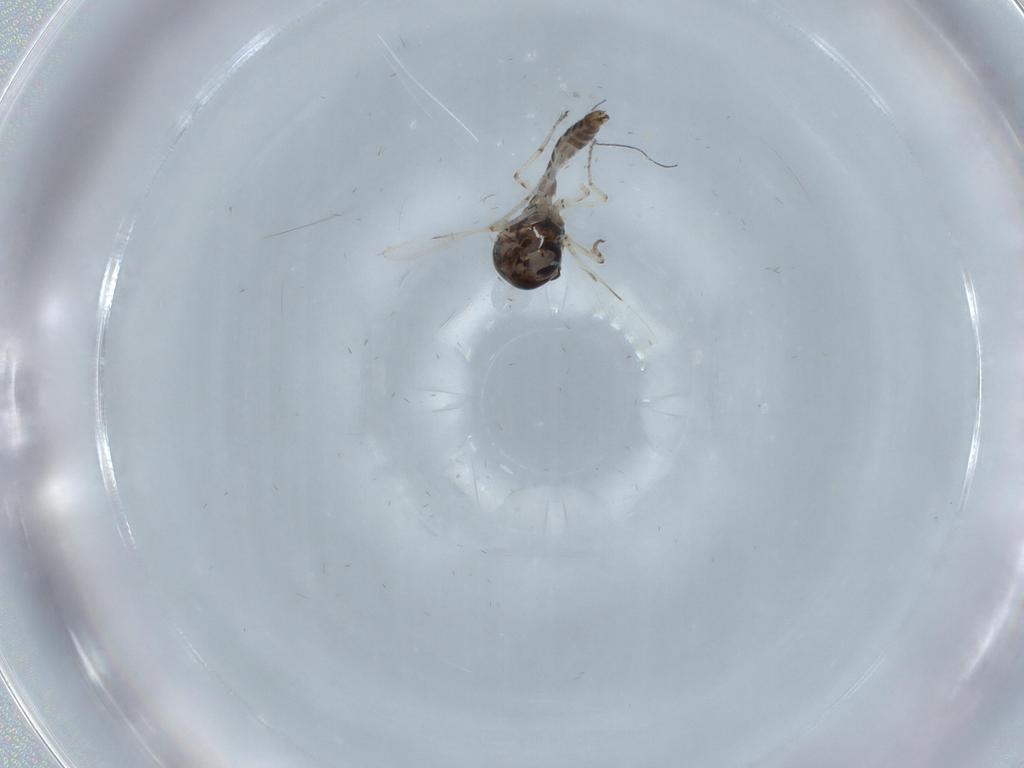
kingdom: Animalia
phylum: Arthropoda
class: Insecta
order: Diptera
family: Ceratopogonidae
